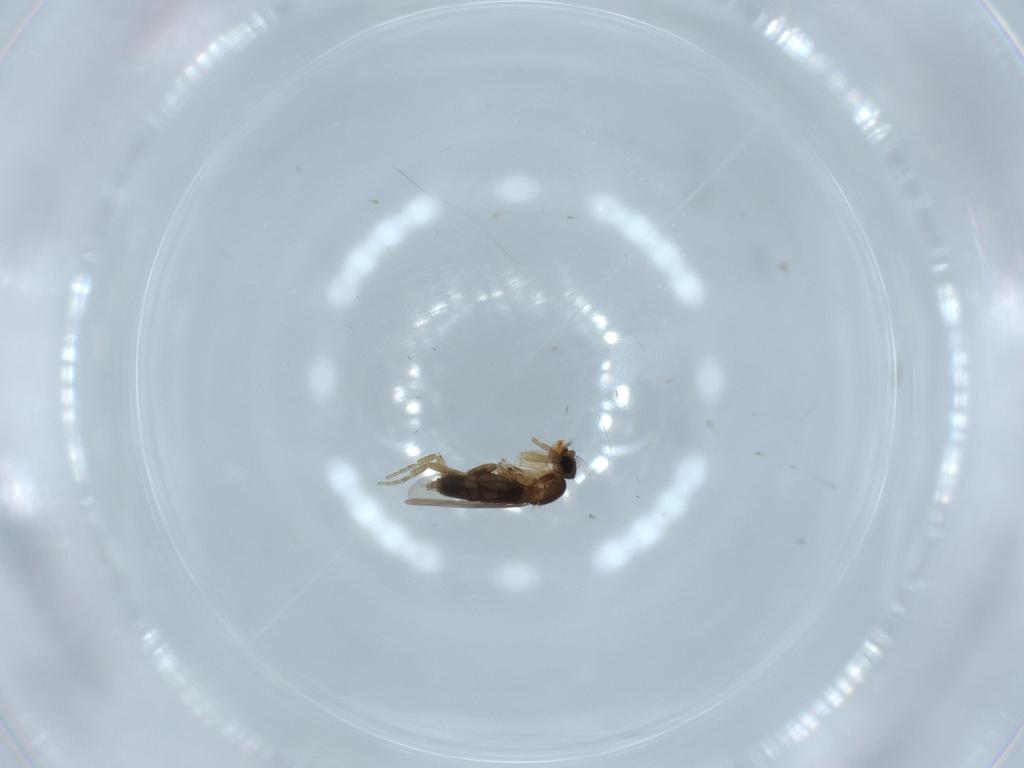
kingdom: Animalia
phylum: Arthropoda
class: Insecta
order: Diptera
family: Phoridae
